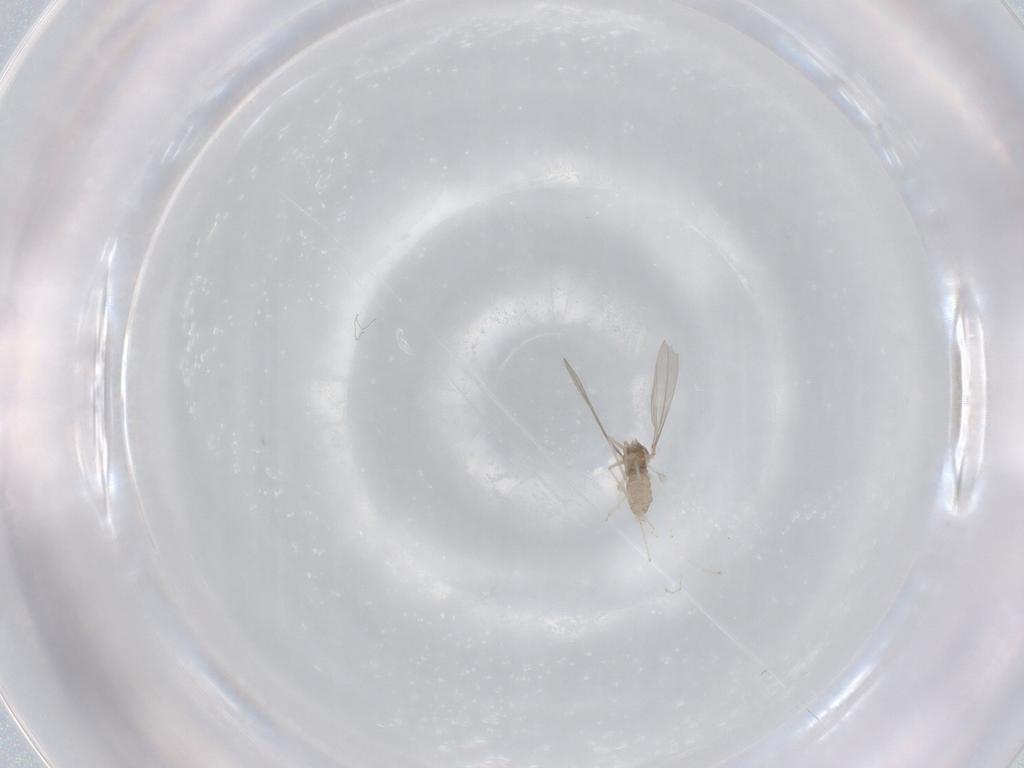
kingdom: Animalia
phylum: Arthropoda
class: Insecta
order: Diptera
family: Cecidomyiidae
